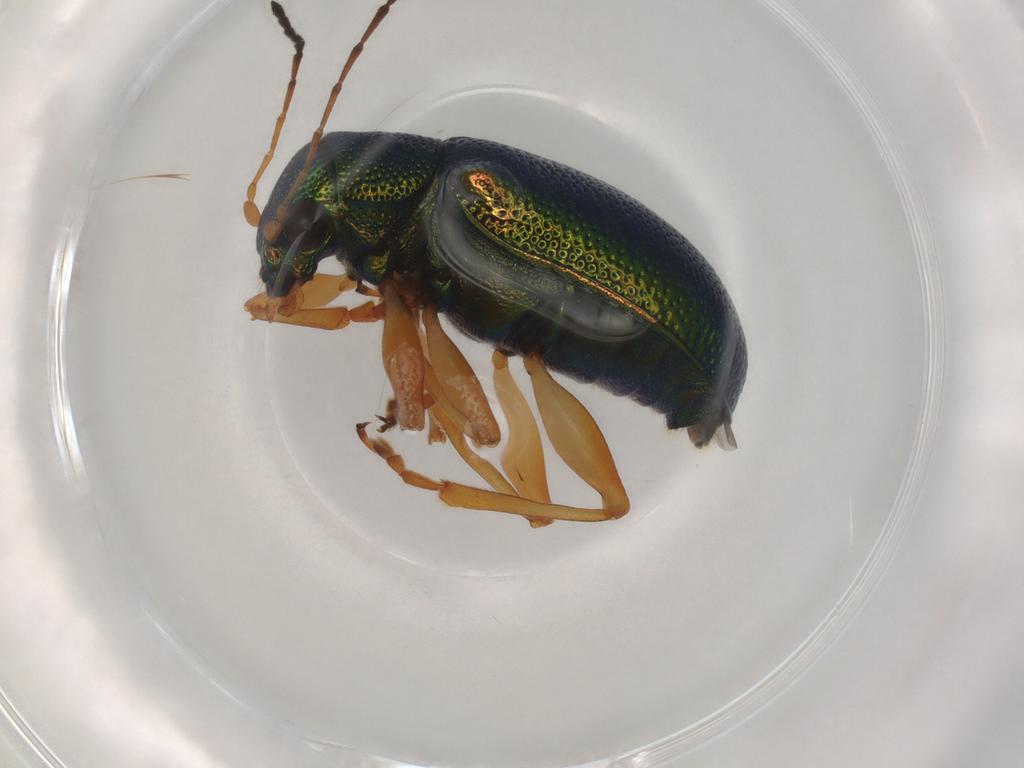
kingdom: Animalia
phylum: Arthropoda
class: Insecta
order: Coleoptera
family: Chrysomelidae
